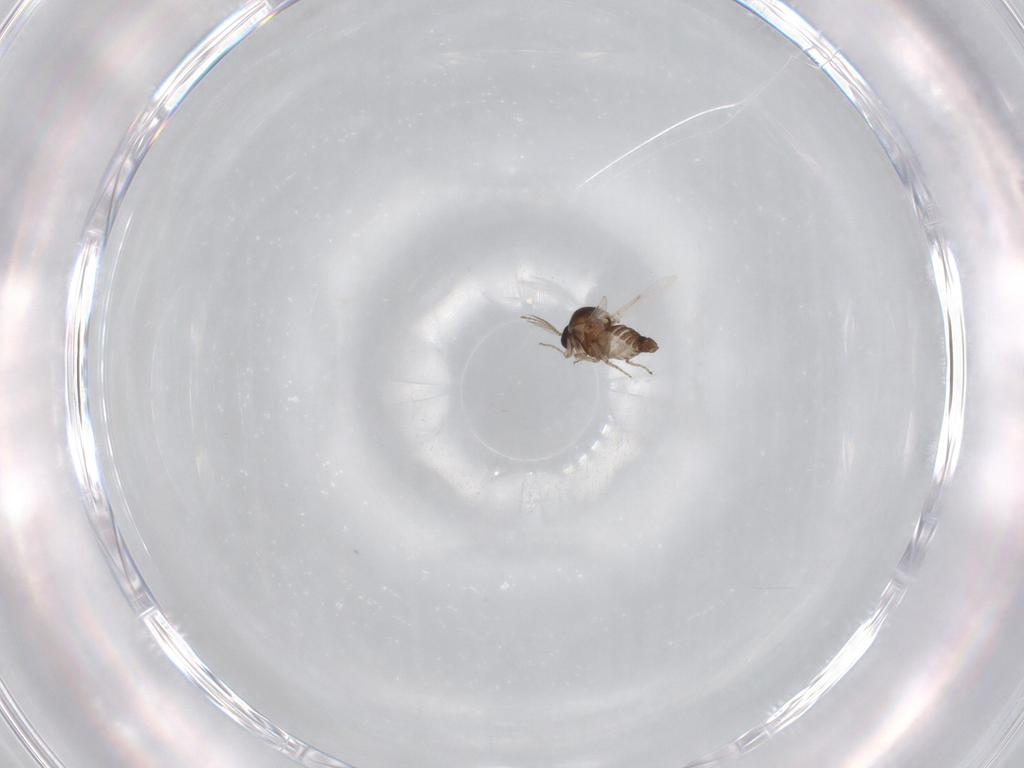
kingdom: Animalia
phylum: Arthropoda
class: Insecta
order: Diptera
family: Ceratopogonidae
